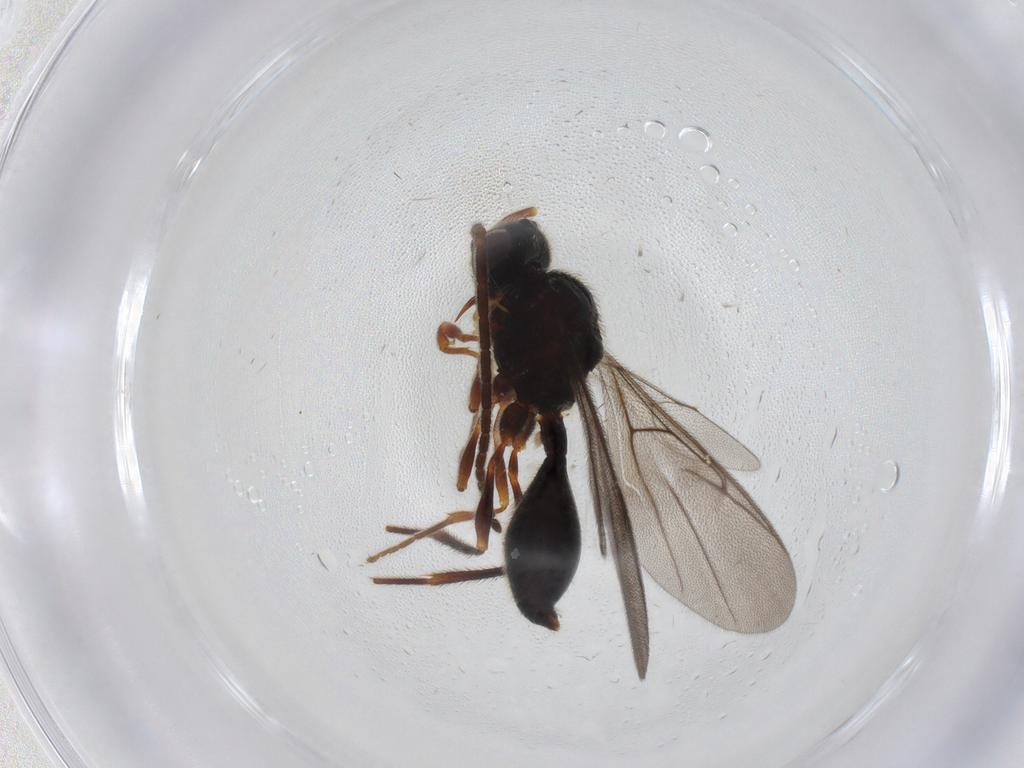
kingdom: Animalia
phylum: Arthropoda
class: Insecta
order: Hymenoptera
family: Diapriidae
